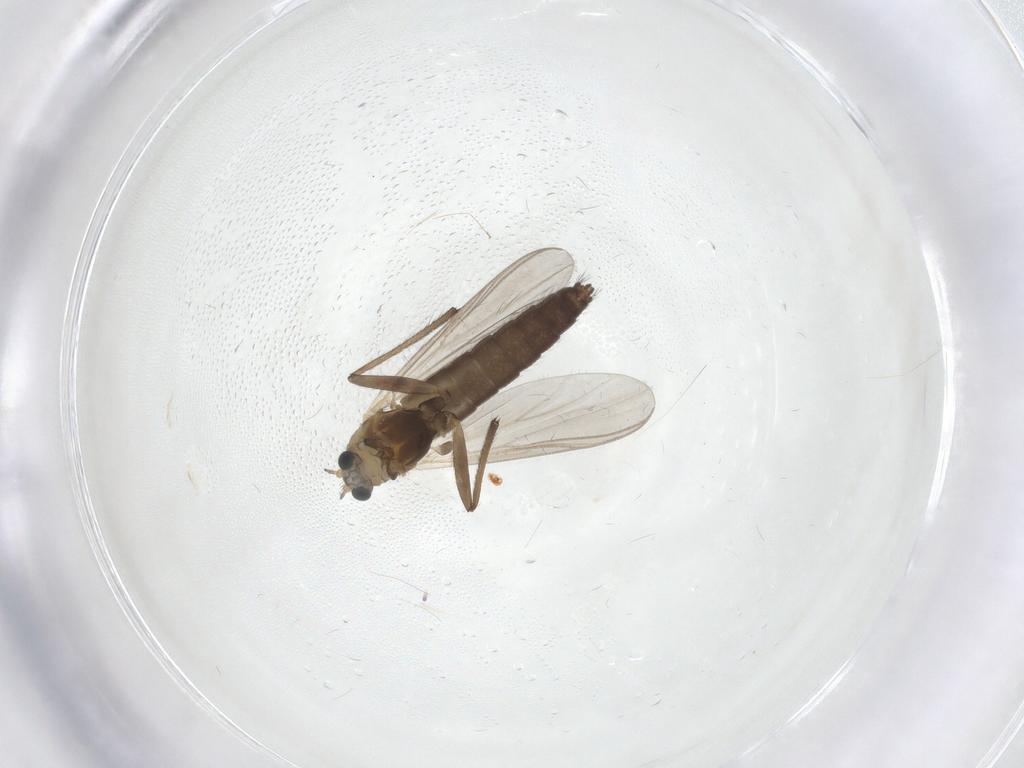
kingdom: Animalia
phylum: Arthropoda
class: Insecta
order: Diptera
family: Chironomidae
